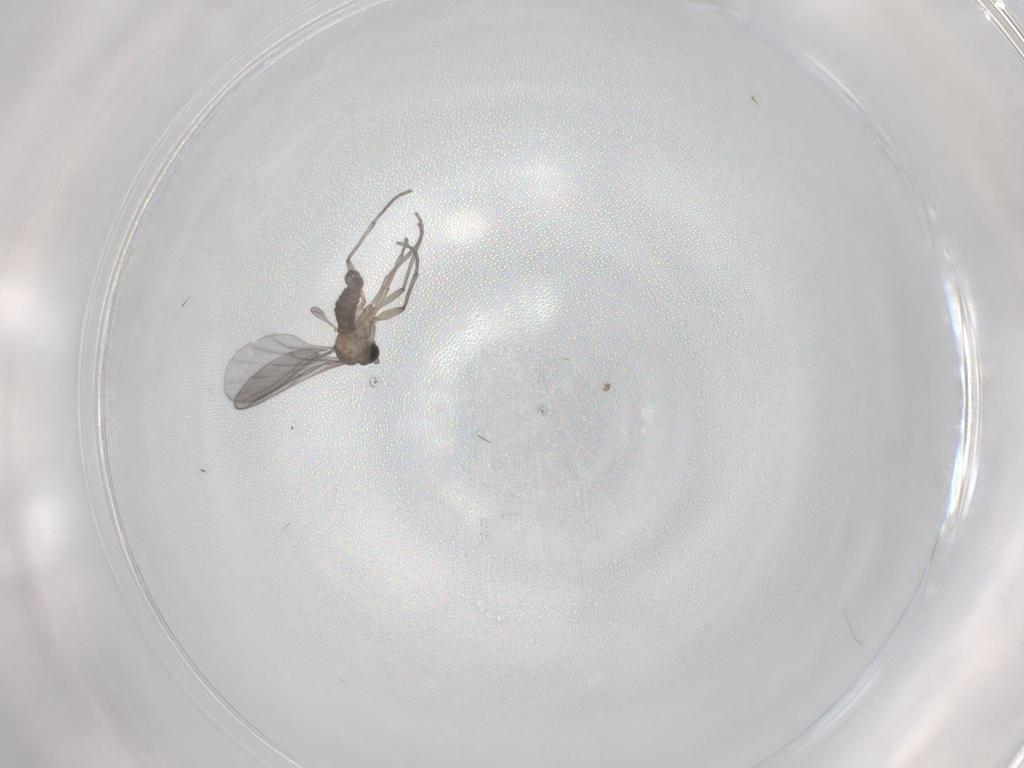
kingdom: Animalia
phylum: Arthropoda
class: Insecta
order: Diptera
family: Sciaridae
